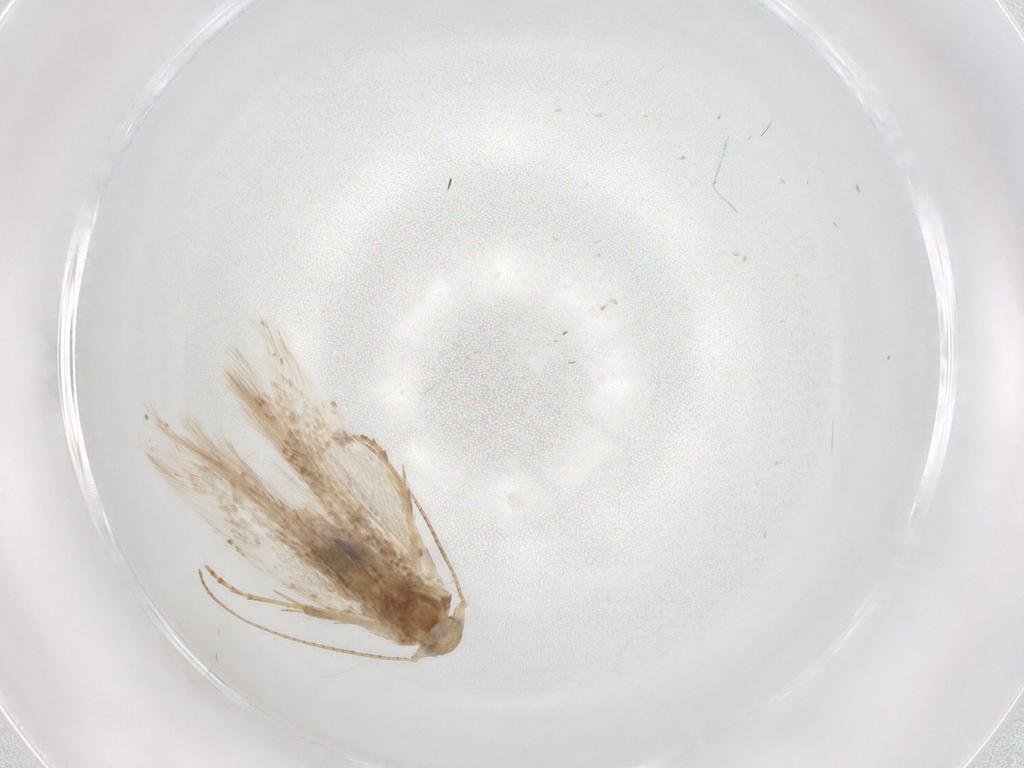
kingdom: Animalia
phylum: Arthropoda
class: Insecta
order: Lepidoptera
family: Bucculatricidae
